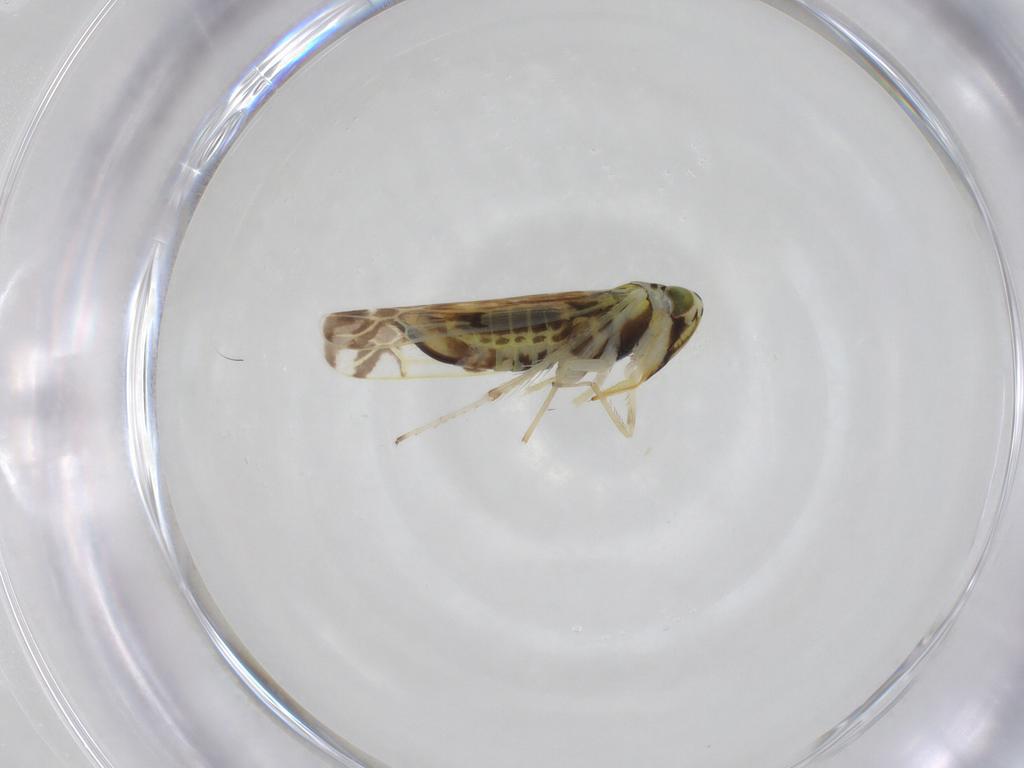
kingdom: Animalia
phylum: Arthropoda
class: Insecta
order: Hemiptera
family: Cicadellidae
